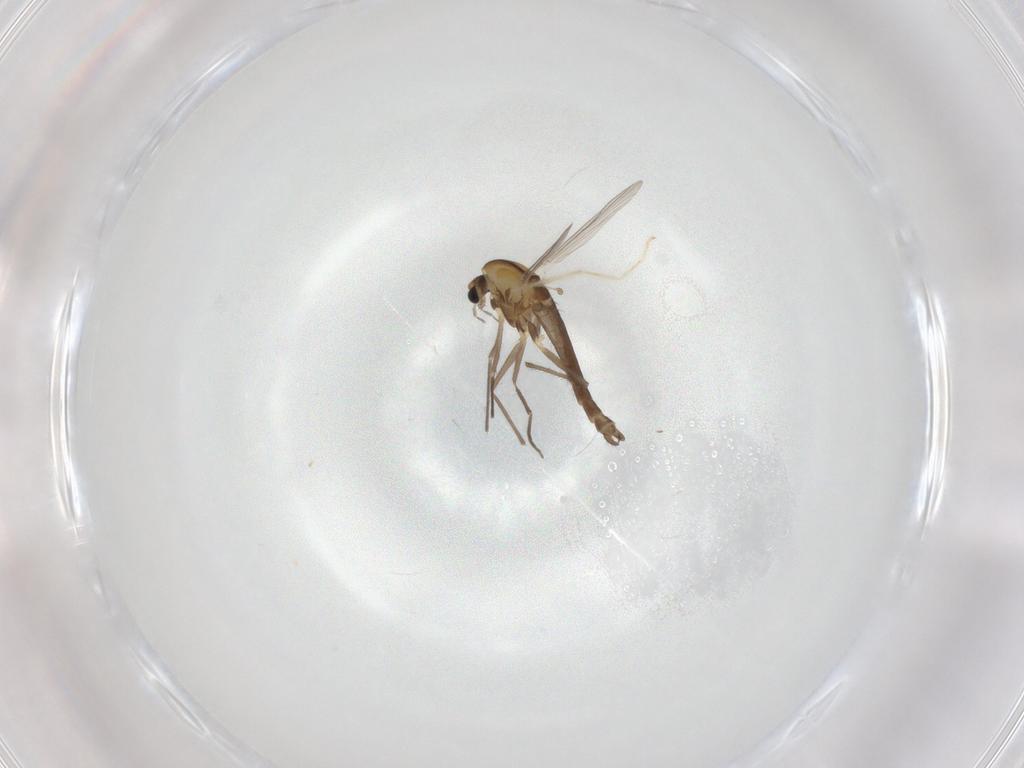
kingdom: Animalia
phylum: Arthropoda
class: Insecta
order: Diptera
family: Chironomidae
